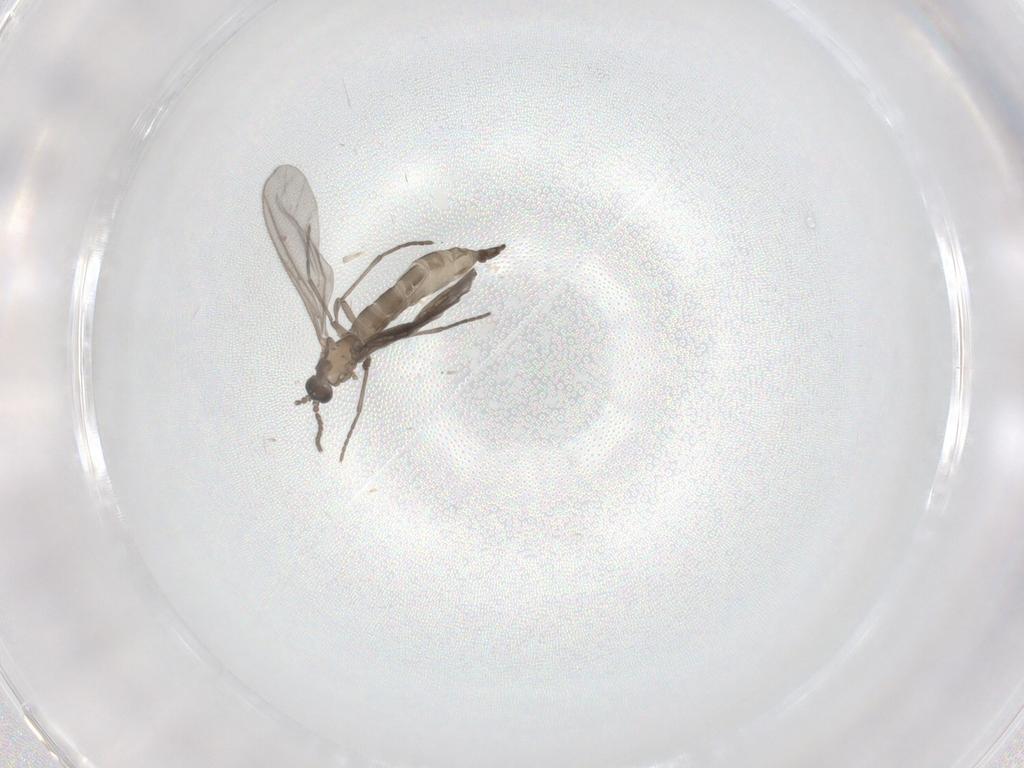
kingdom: Animalia
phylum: Arthropoda
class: Insecta
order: Diptera
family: Sciaridae
